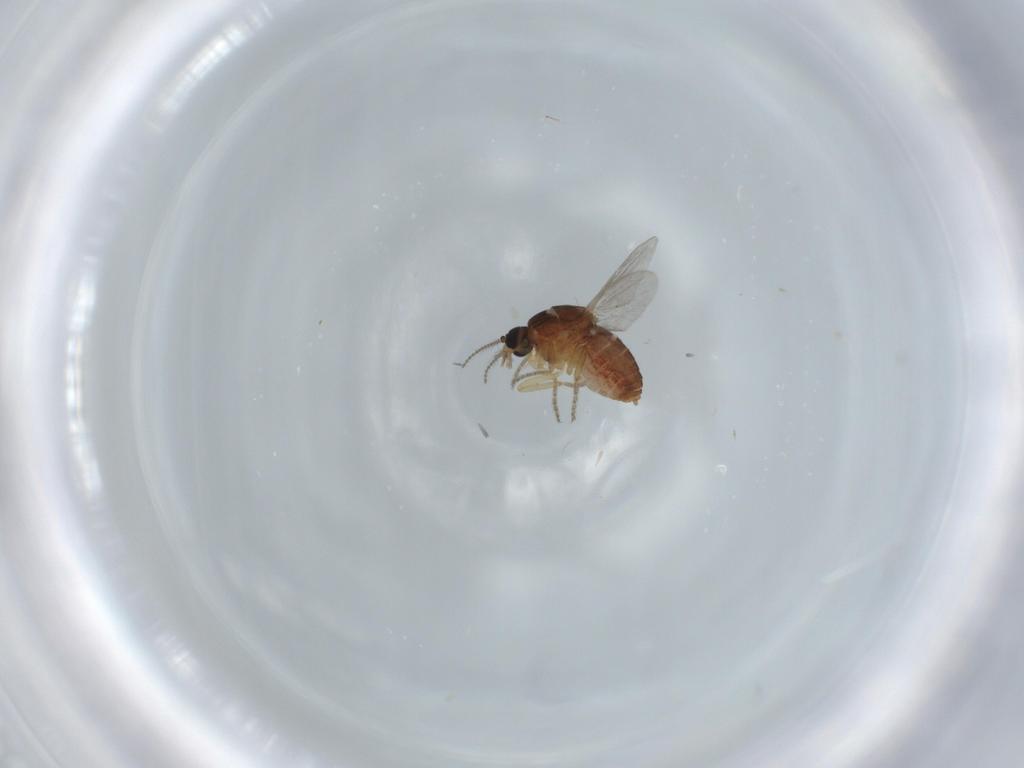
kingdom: Animalia
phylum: Arthropoda
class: Insecta
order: Diptera
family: Ceratopogonidae
